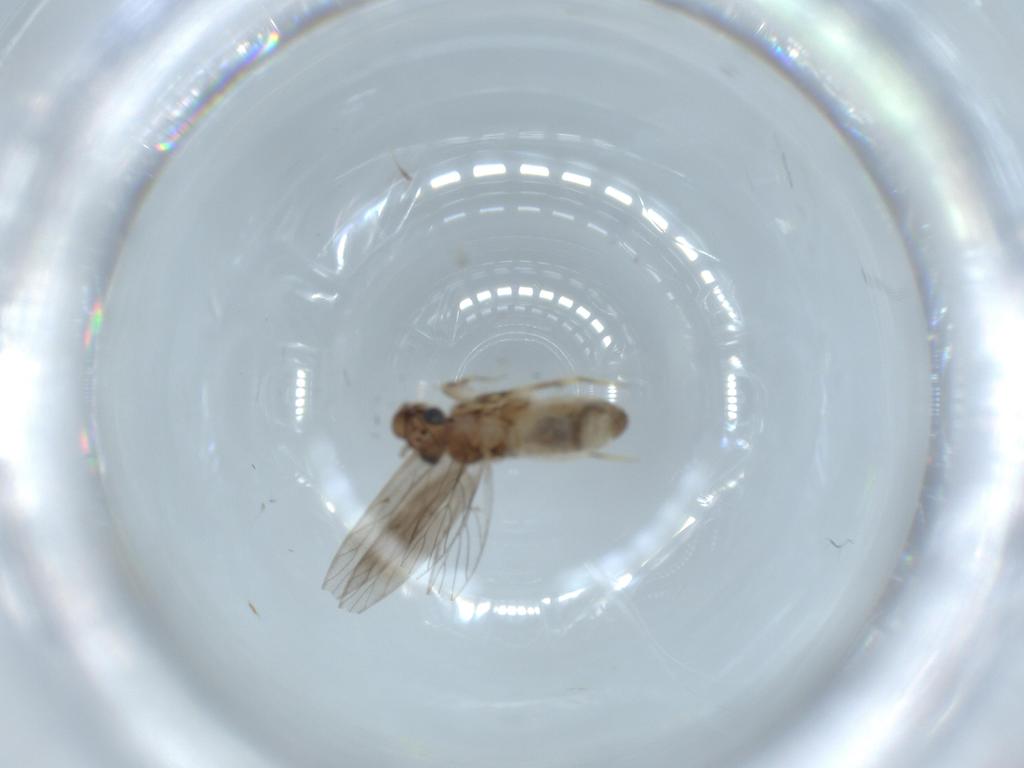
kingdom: Animalia
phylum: Arthropoda
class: Insecta
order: Psocodea
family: Lepidopsocidae
